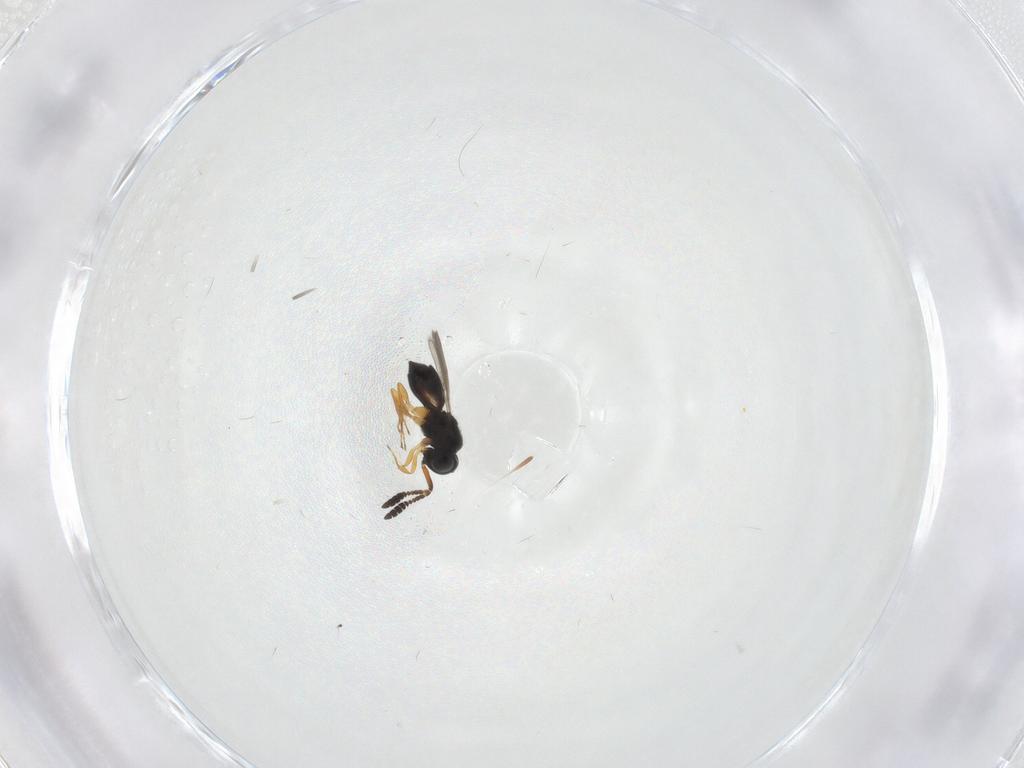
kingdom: Animalia
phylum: Arthropoda
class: Insecta
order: Hymenoptera
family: Scelionidae
